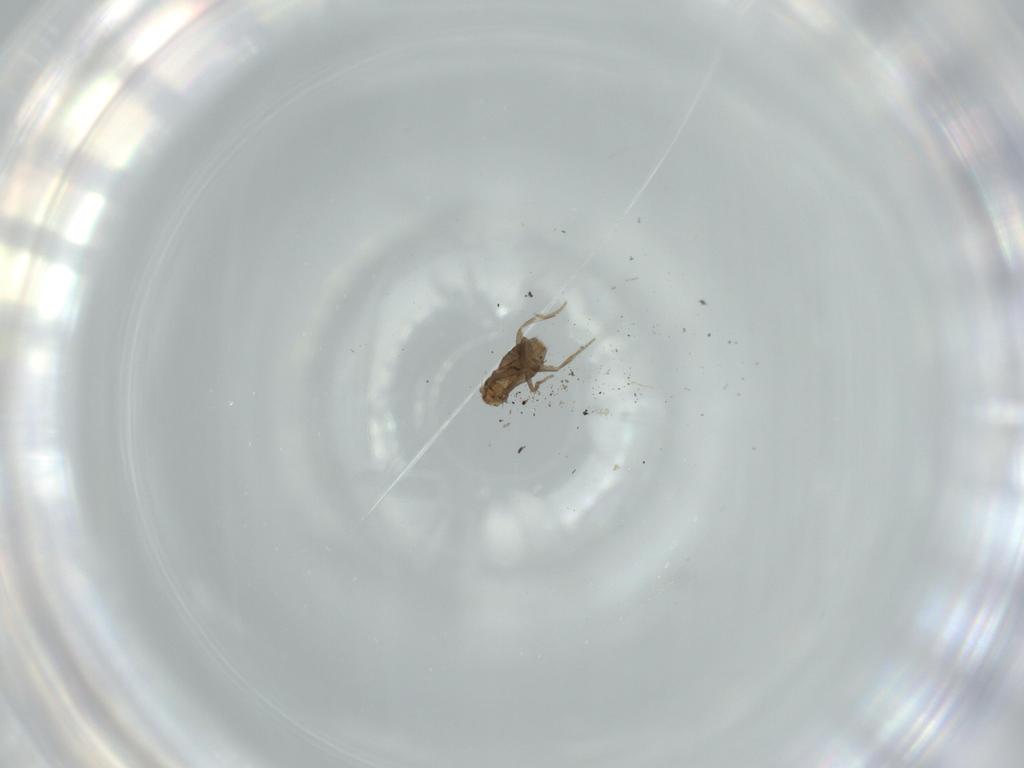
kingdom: Animalia
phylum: Arthropoda
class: Insecta
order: Diptera
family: Phoridae
